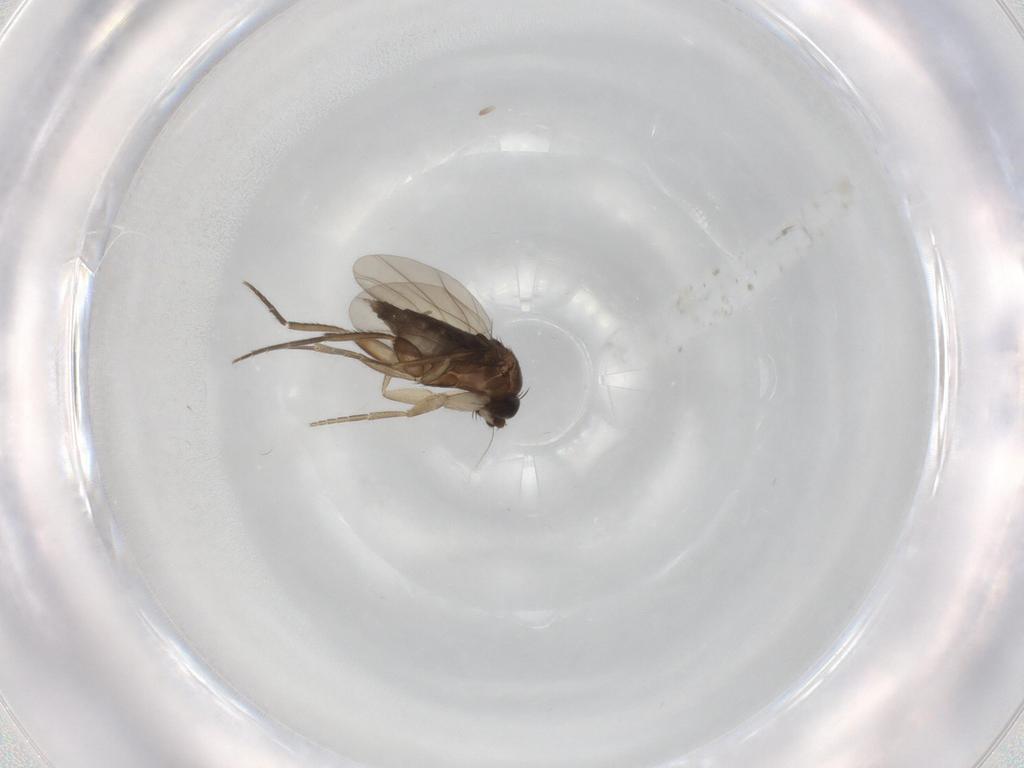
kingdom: Animalia
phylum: Arthropoda
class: Insecta
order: Diptera
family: Phoridae
